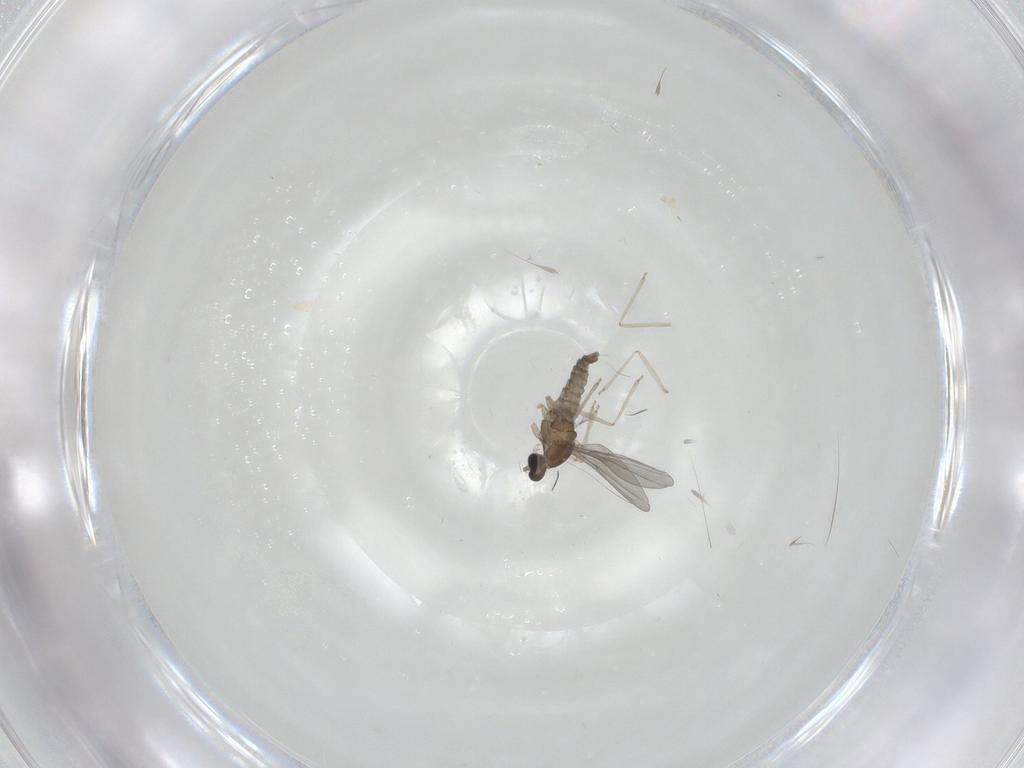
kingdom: Animalia
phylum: Arthropoda
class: Insecta
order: Diptera
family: Cecidomyiidae
